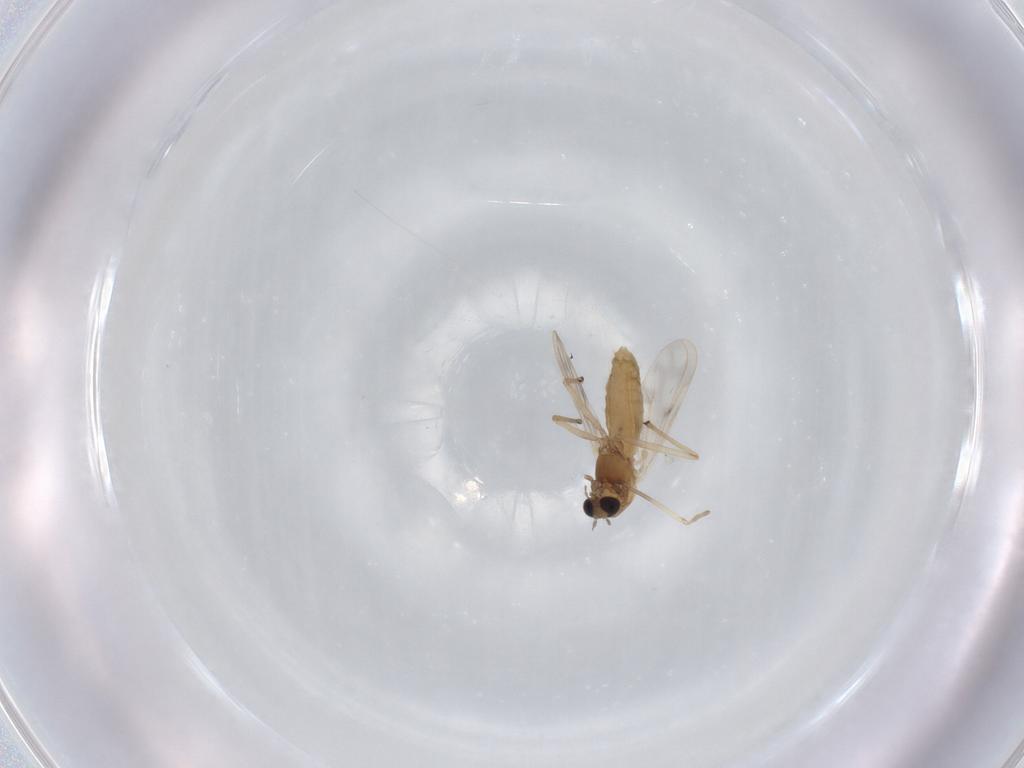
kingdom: Animalia
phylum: Arthropoda
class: Insecta
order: Diptera
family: Chironomidae
